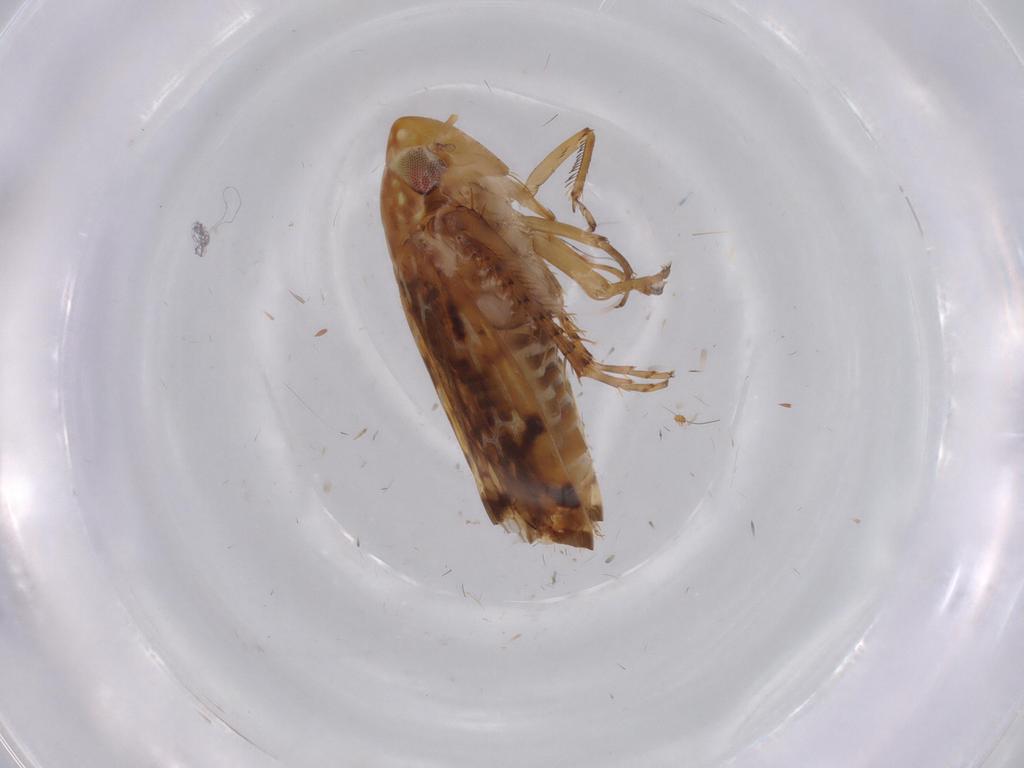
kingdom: Animalia
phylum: Arthropoda
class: Insecta
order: Hemiptera
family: Cicadellidae
